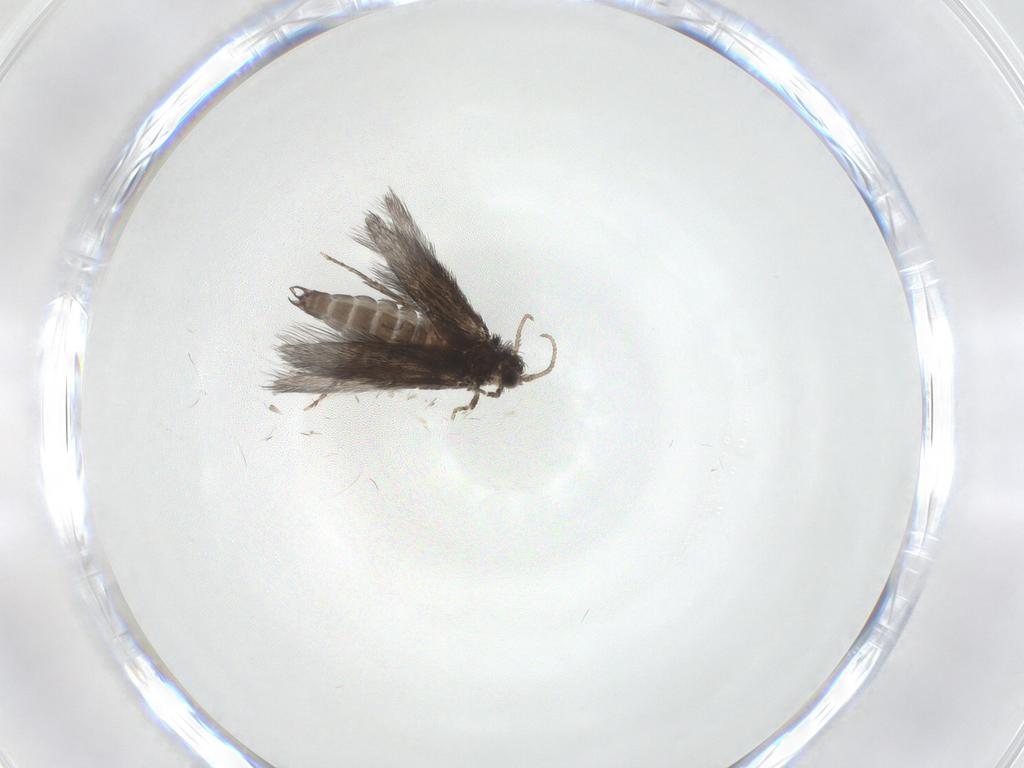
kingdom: Animalia
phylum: Arthropoda
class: Insecta
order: Trichoptera
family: Hydroptilidae
